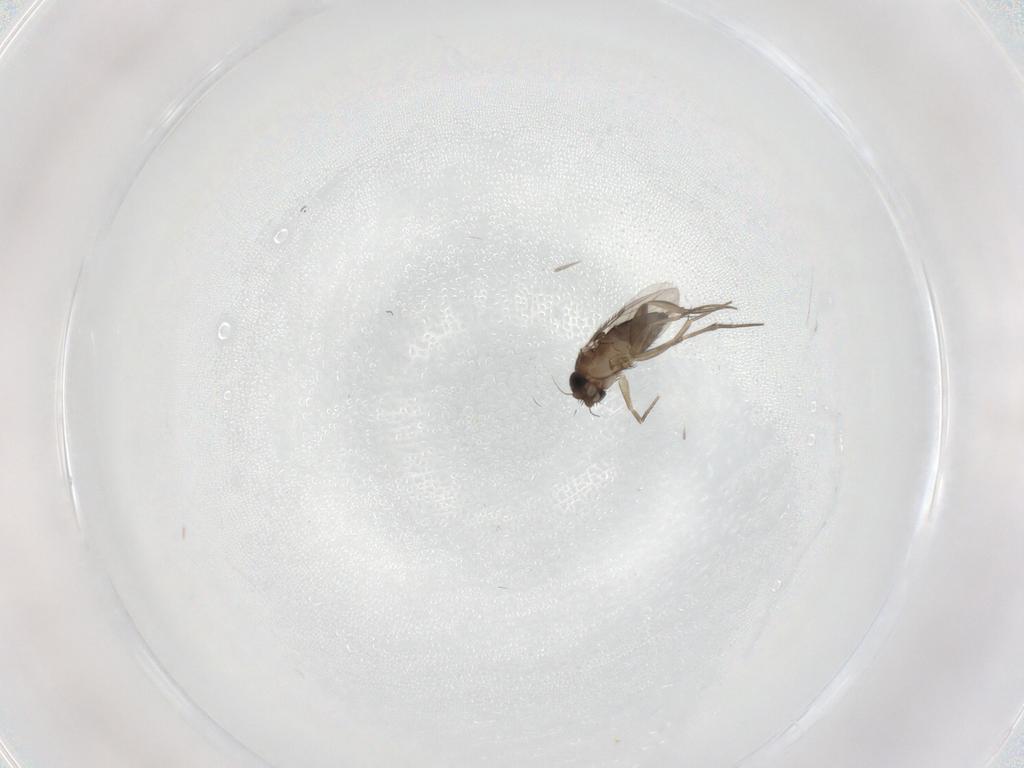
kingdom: Animalia
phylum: Arthropoda
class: Insecta
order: Diptera
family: Phoridae
